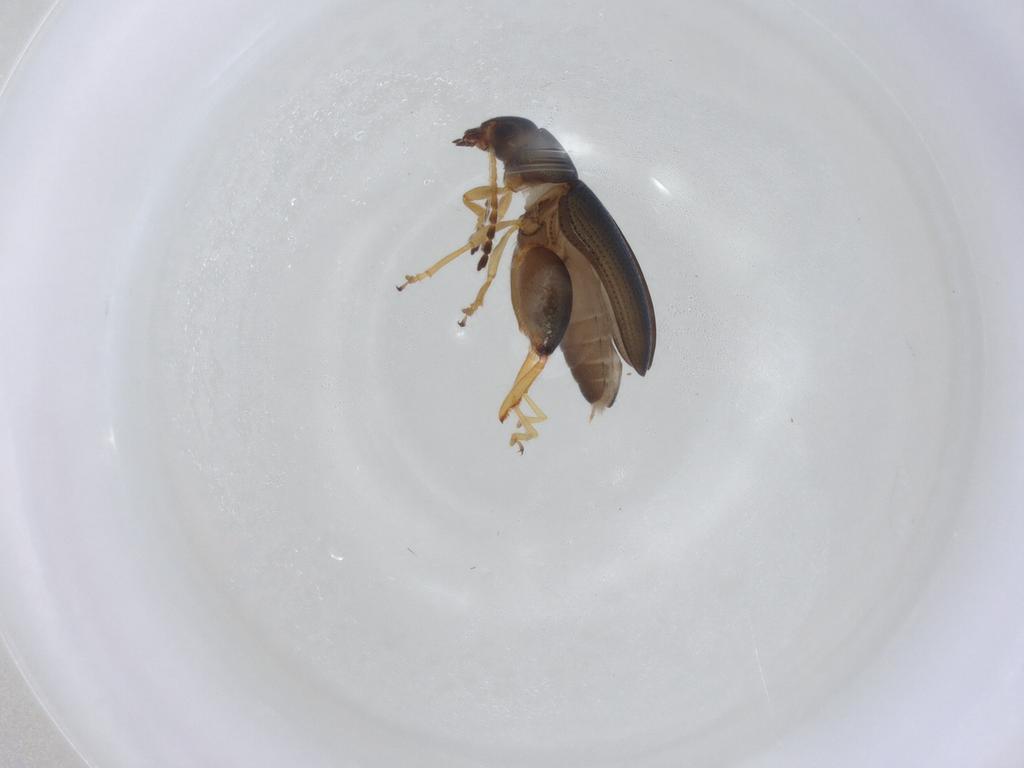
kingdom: Animalia
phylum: Arthropoda
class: Insecta
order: Coleoptera
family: Chrysomelidae
